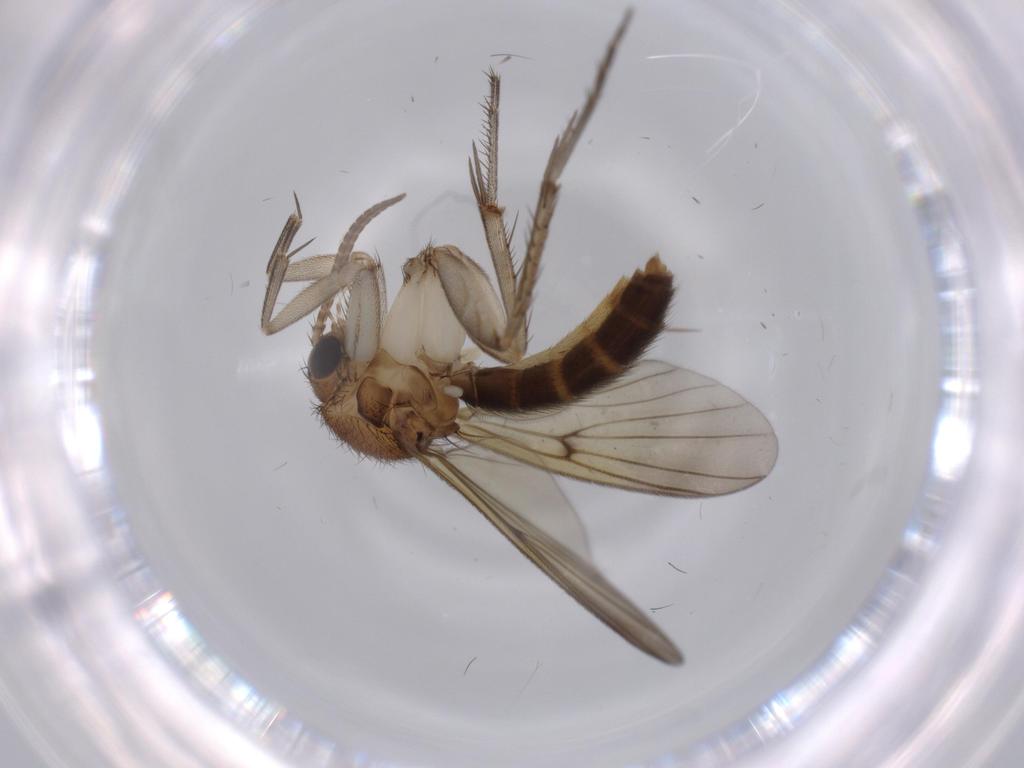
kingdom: Animalia
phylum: Arthropoda
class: Insecta
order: Diptera
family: Mycetophilidae
